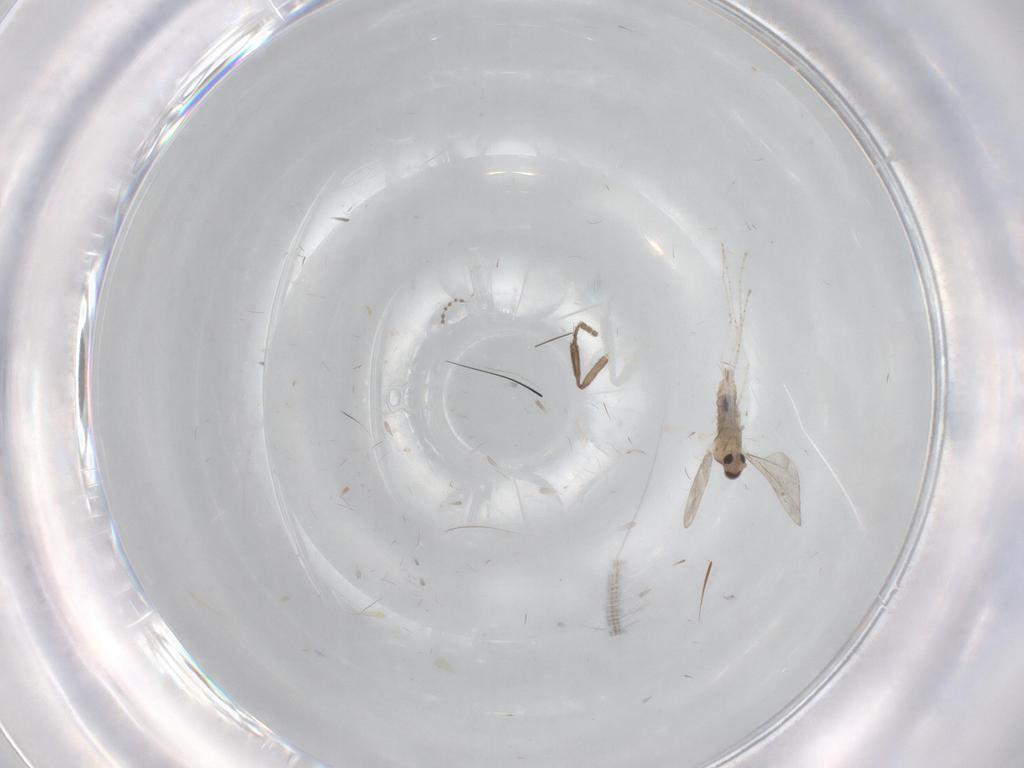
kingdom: Animalia
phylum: Arthropoda
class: Insecta
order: Diptera
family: Cecidomyiidae
